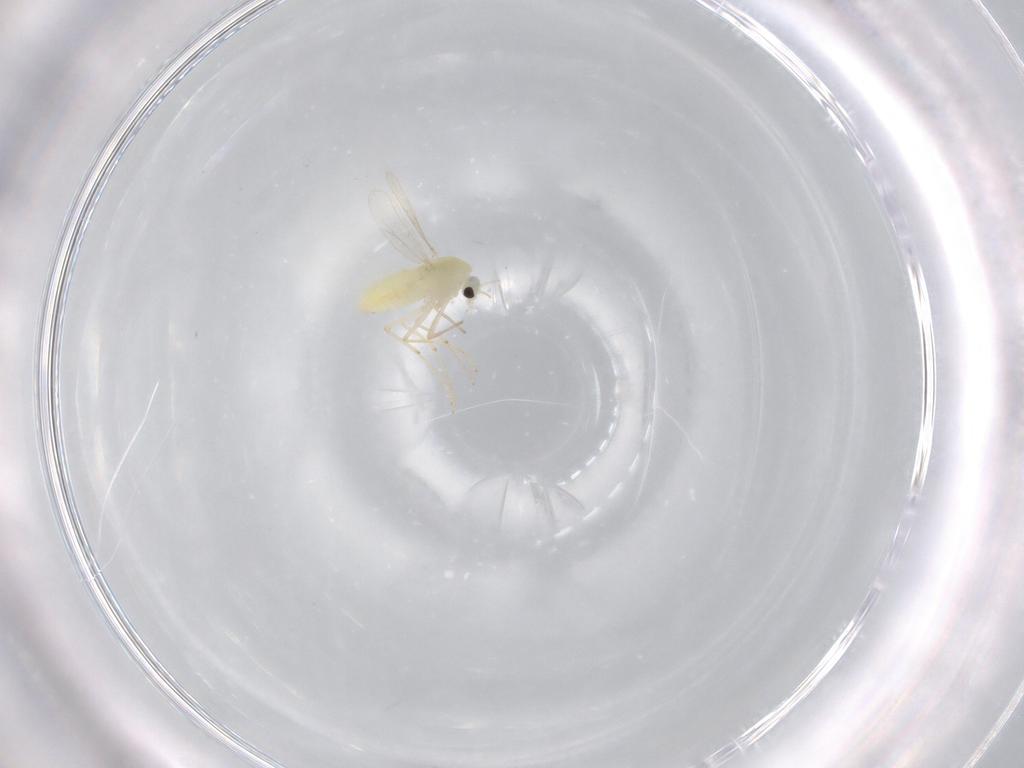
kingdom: Animalia
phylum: Arthropoda
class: Insecta
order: Diptera
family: Chironomidae
